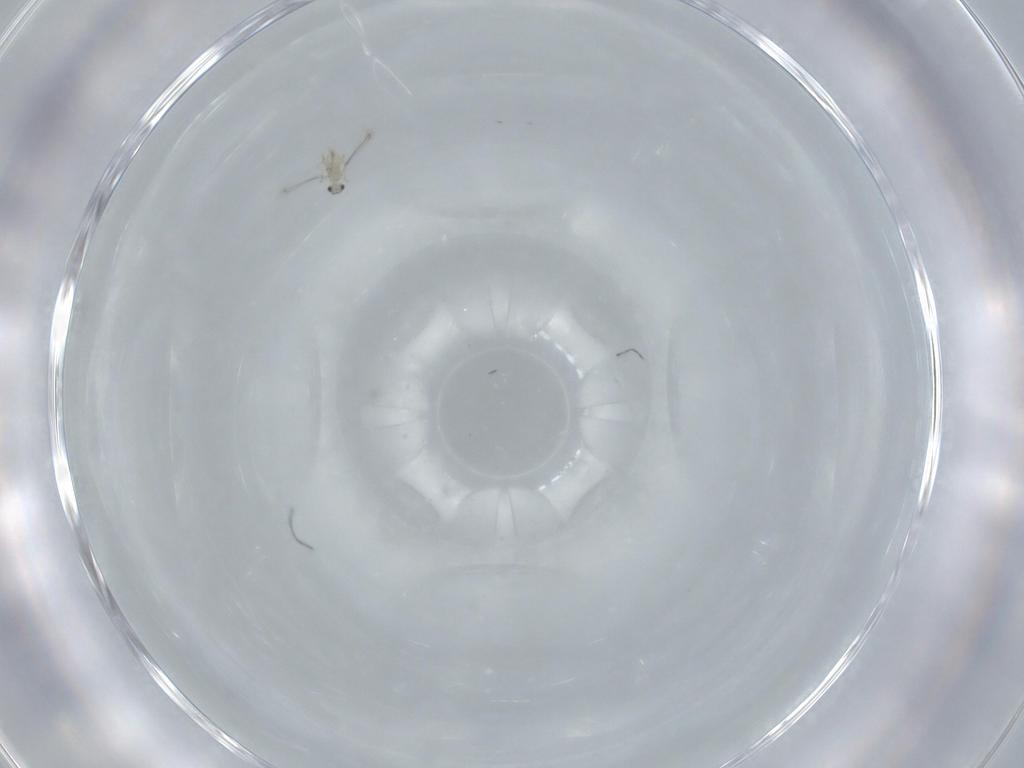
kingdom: Animalia
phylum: Arthropoda
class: Insecta
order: Hymenoptera
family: Mymaridae
